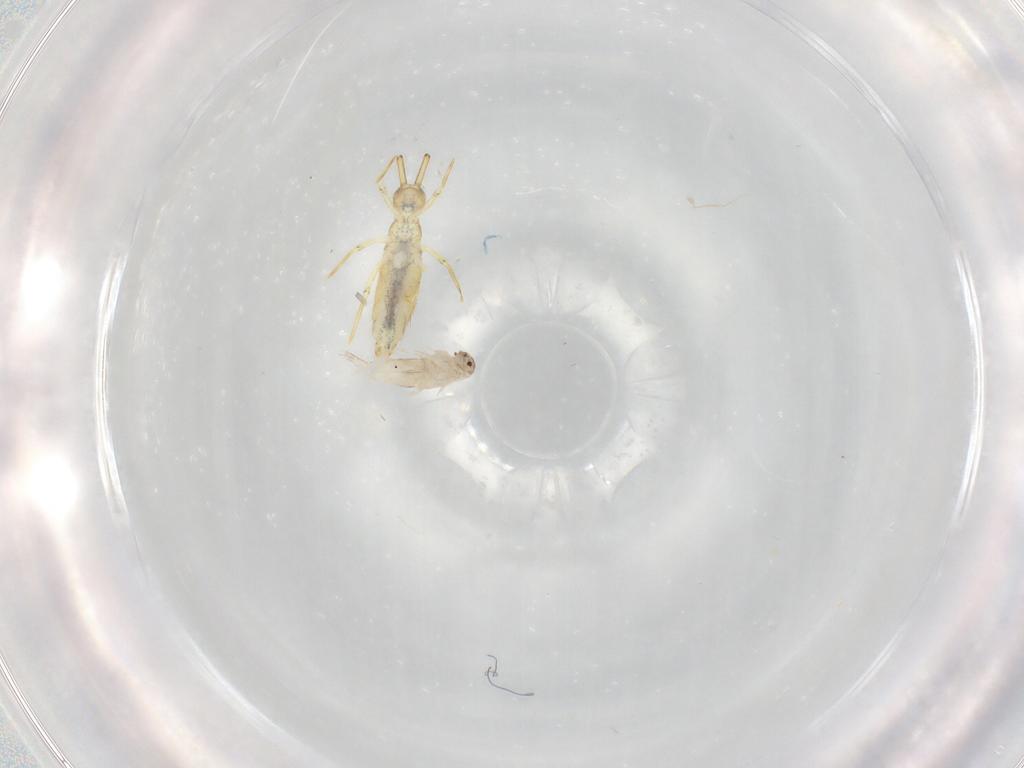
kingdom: Animalia
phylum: Arthropoda
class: Collembola
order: Entomobryomorpha
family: Entomobryidae
